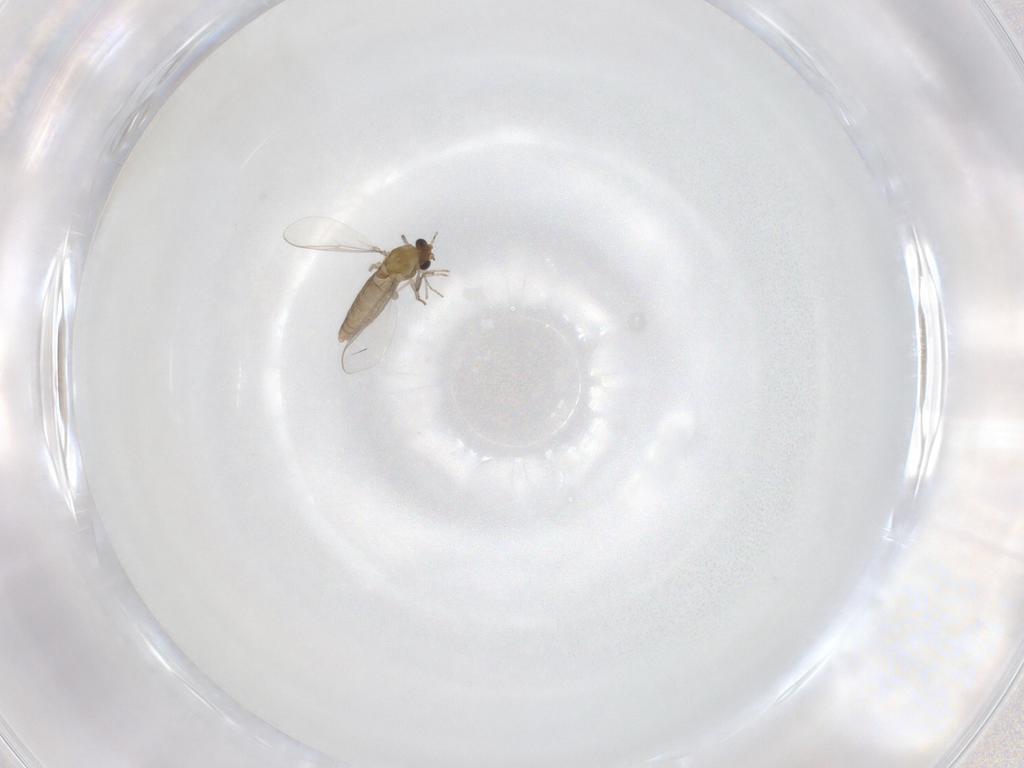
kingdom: Animalia
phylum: Arthropoda
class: Insecta
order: Diptera
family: Chironomidae
